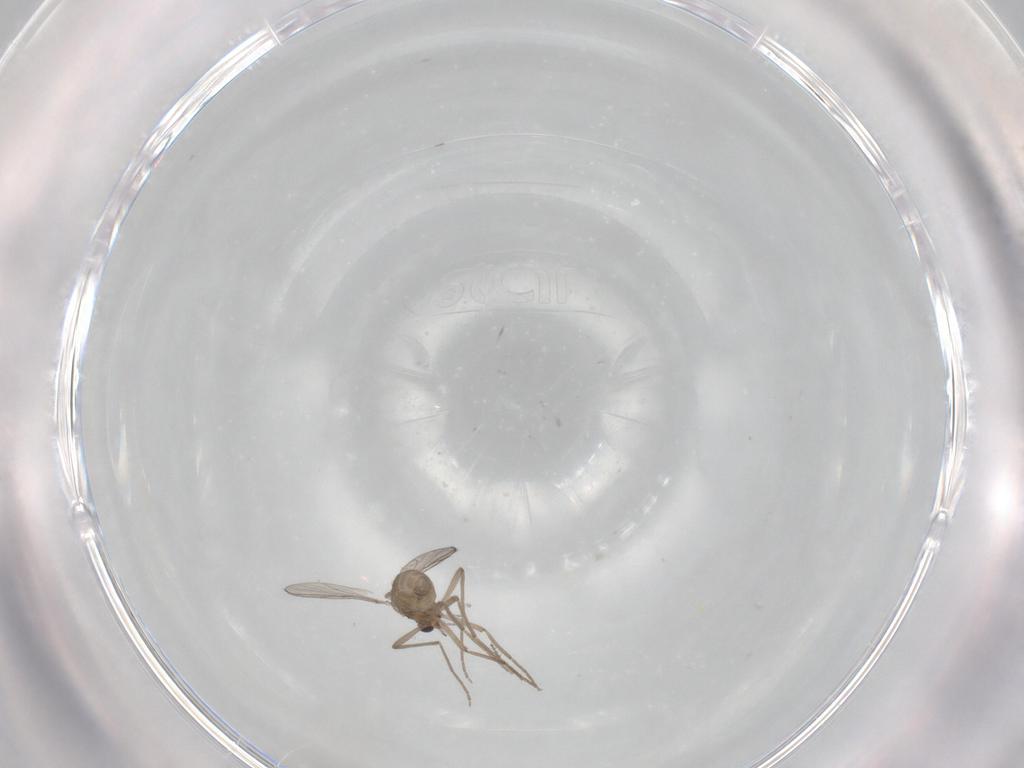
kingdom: Animalia
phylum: Arthropoda
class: Insecta
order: Diptera
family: Chironomidae
